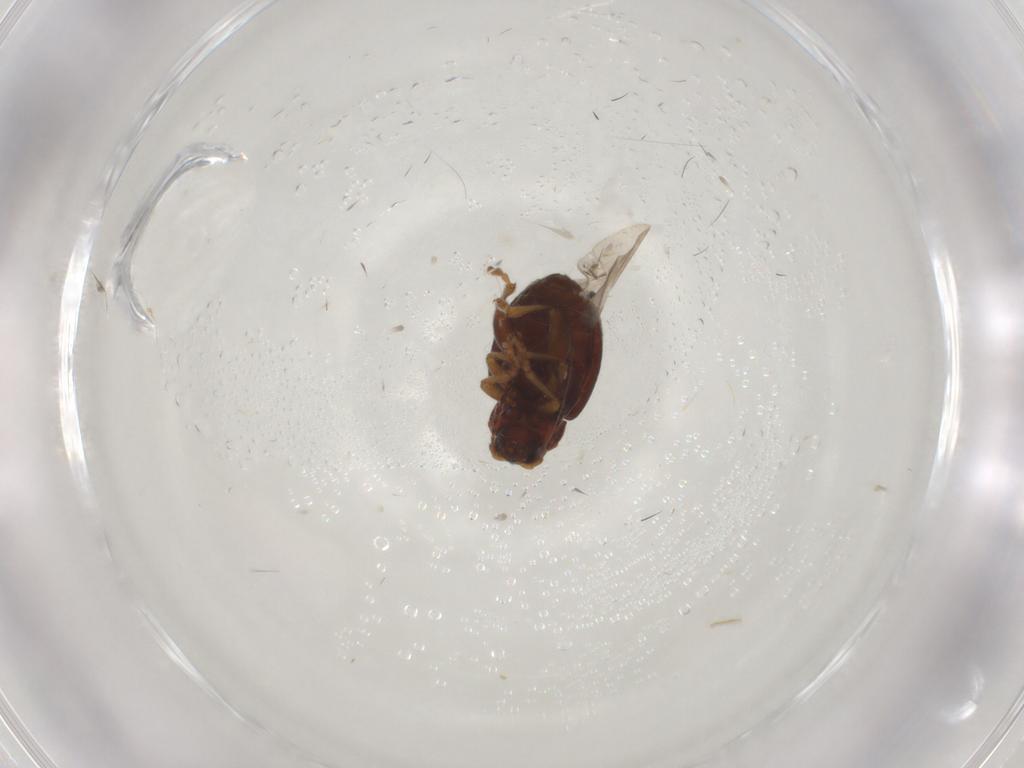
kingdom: Animalia
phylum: Arthropoda
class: Insecta
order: Coleoptera
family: Chrysomelidae
